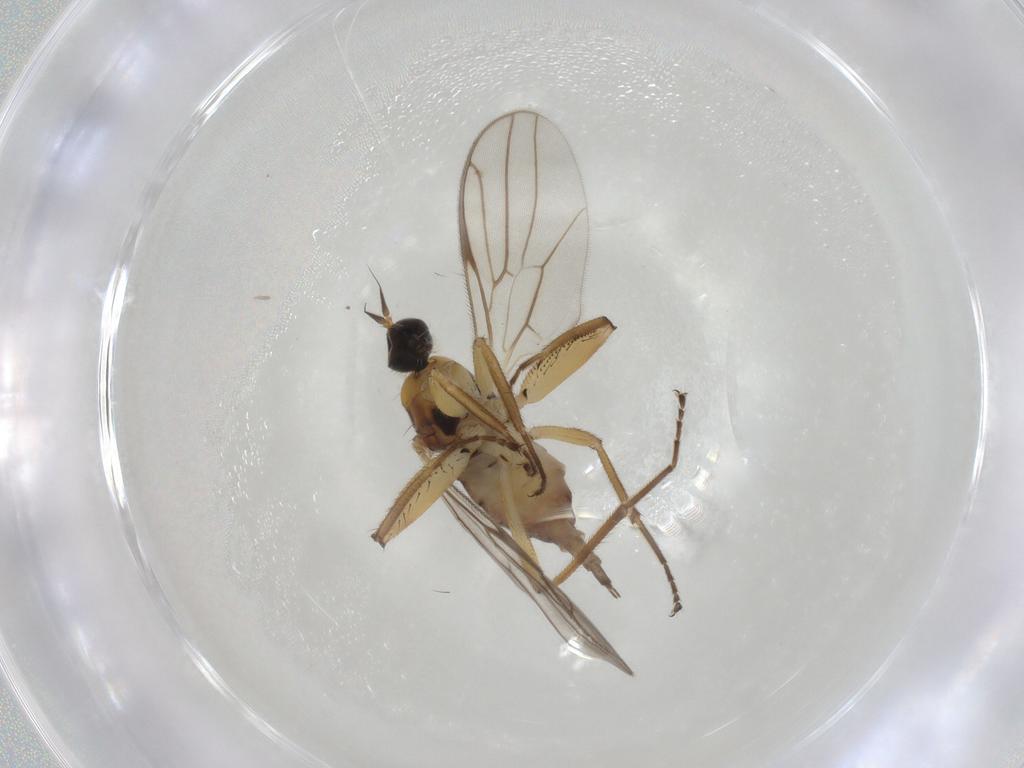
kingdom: Animalia
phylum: Arthropoda
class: Insecta
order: Diptera
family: Hybotidae
